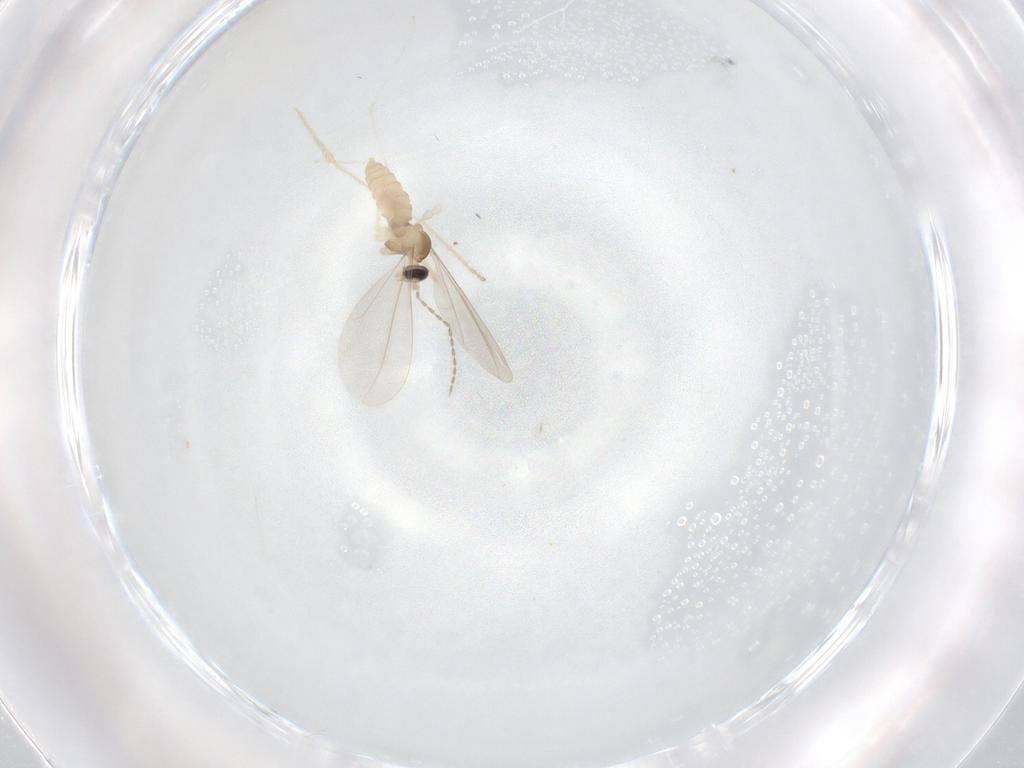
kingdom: Animalia
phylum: Arthropoda
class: Insecta
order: Diptera
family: Cecidomyiidae
